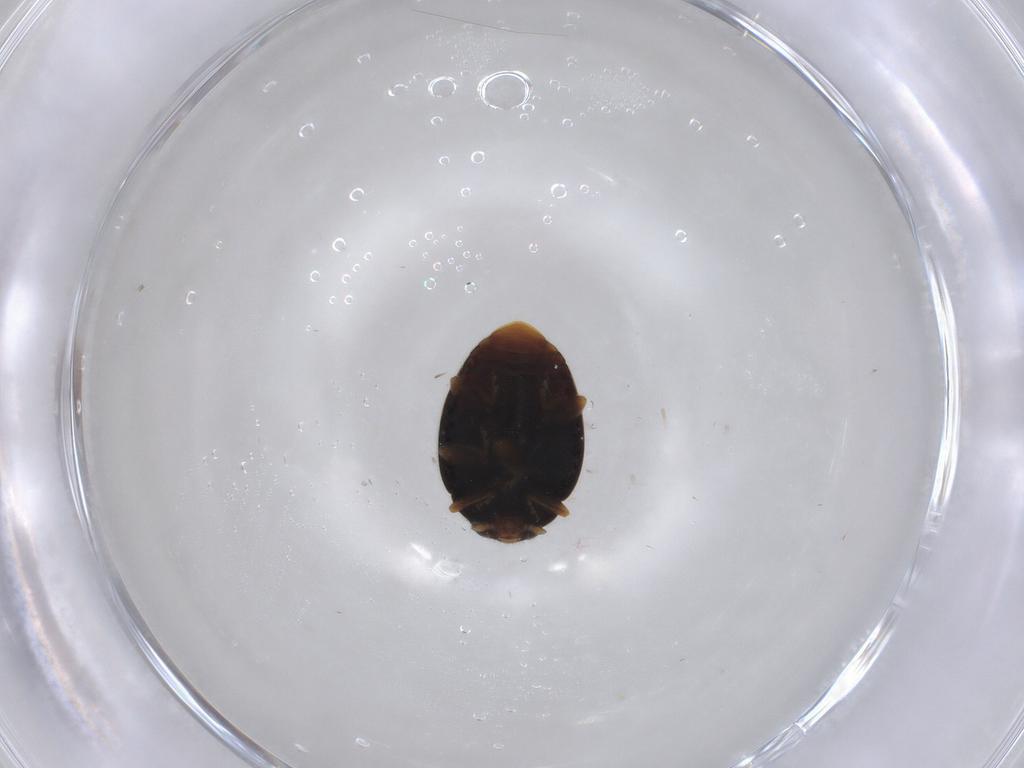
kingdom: Animalia
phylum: Arthropoda
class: Insecta
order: Coleoptera
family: Coccinellidae
